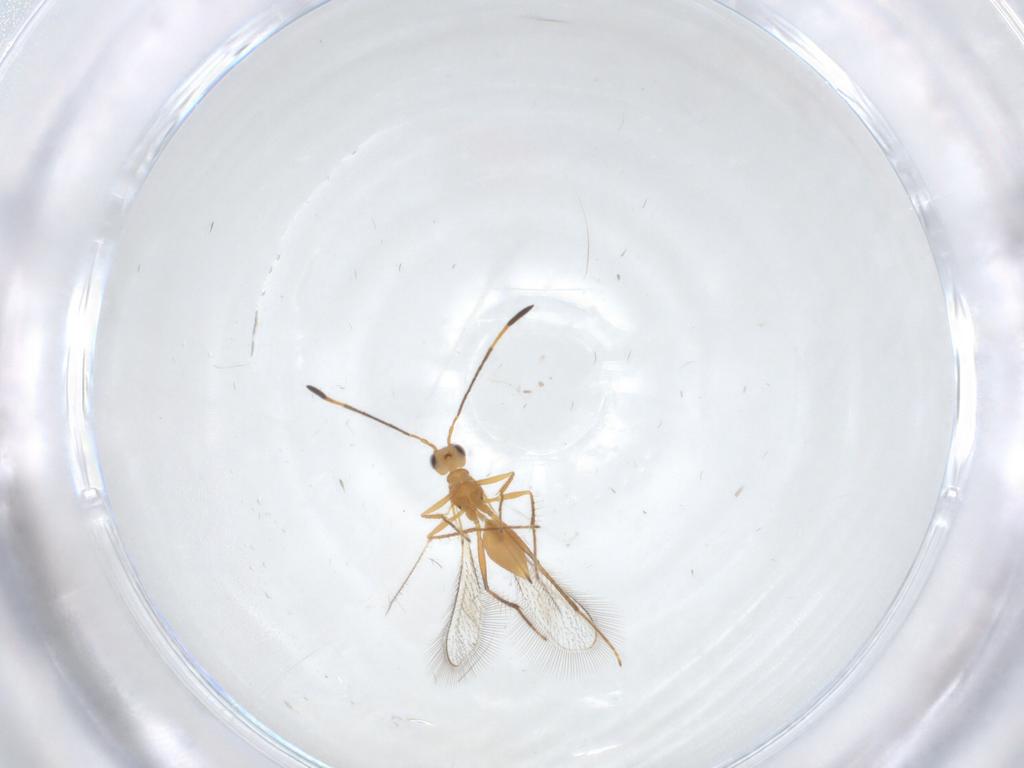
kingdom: Animalia
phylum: Arthropoda
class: Insecta
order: Hymenoptera
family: Mymaridae
